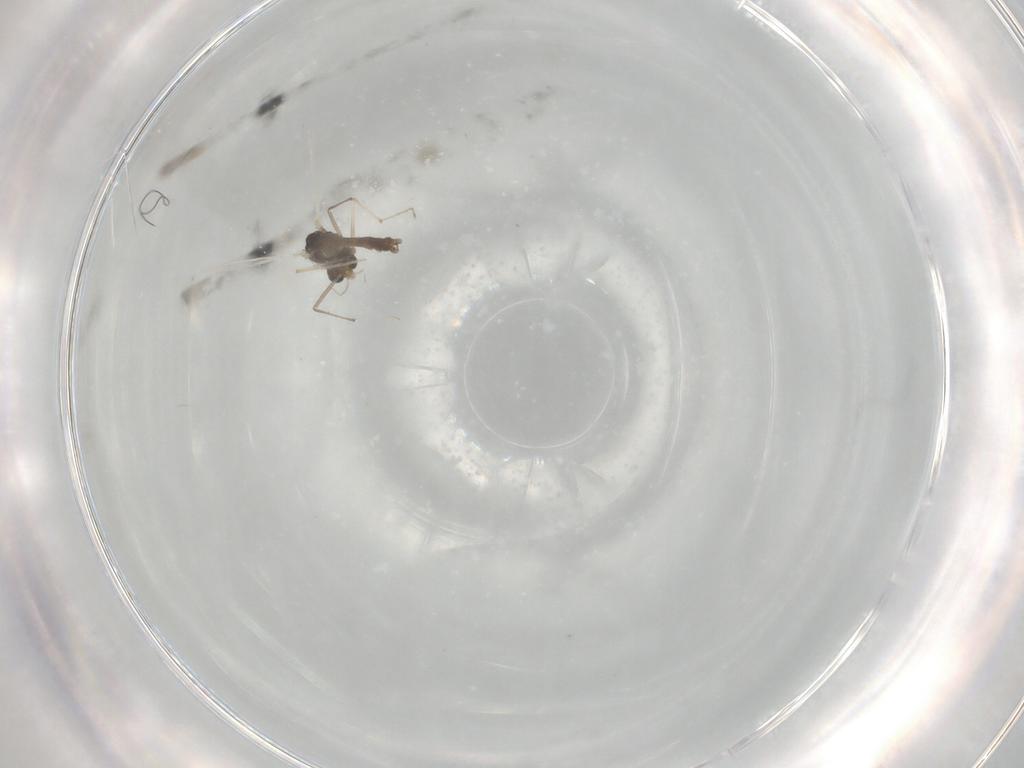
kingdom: Animalia
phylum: Arthropoda
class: Insecta
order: Diptera
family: Chironomidae
